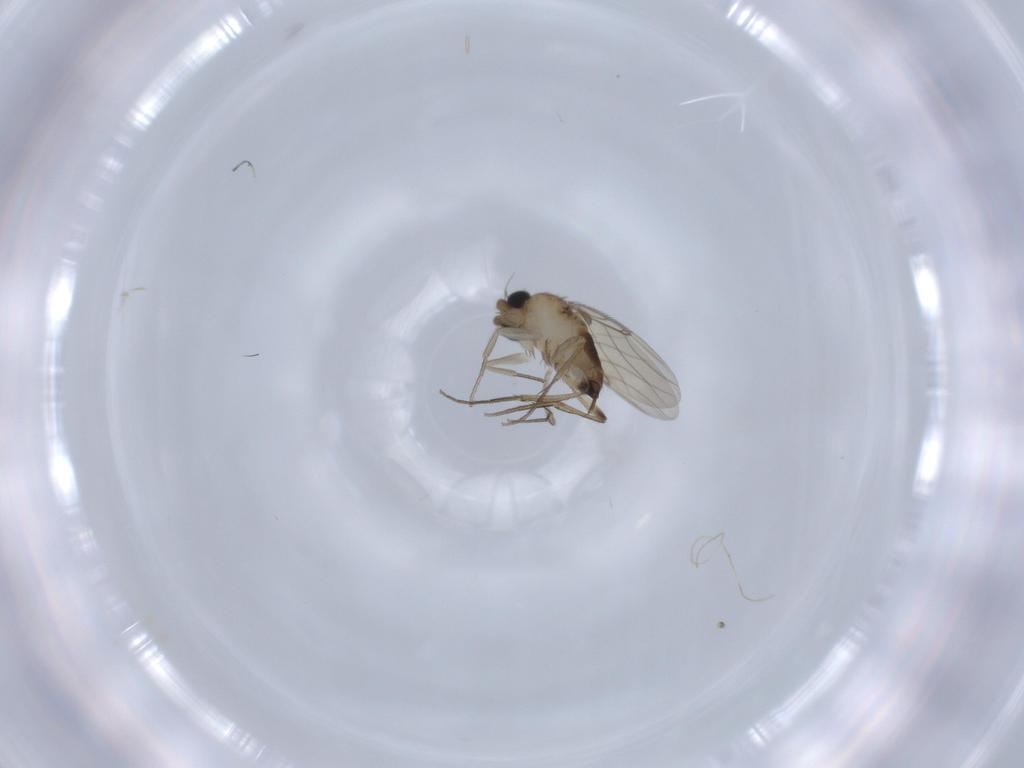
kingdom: Animalia
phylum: Arthropoda
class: Insecta
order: Diptera
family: Phoridae
